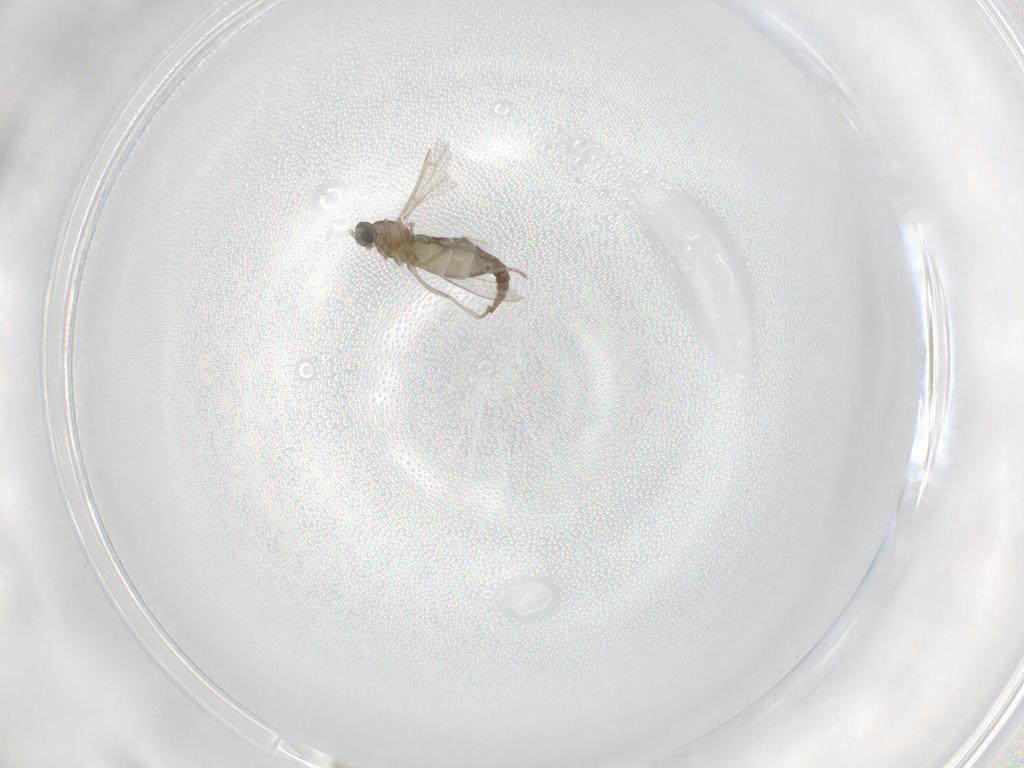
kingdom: Animalia
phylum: Arthropoda
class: Insecta
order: Diptera
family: Cecidomyiidae
